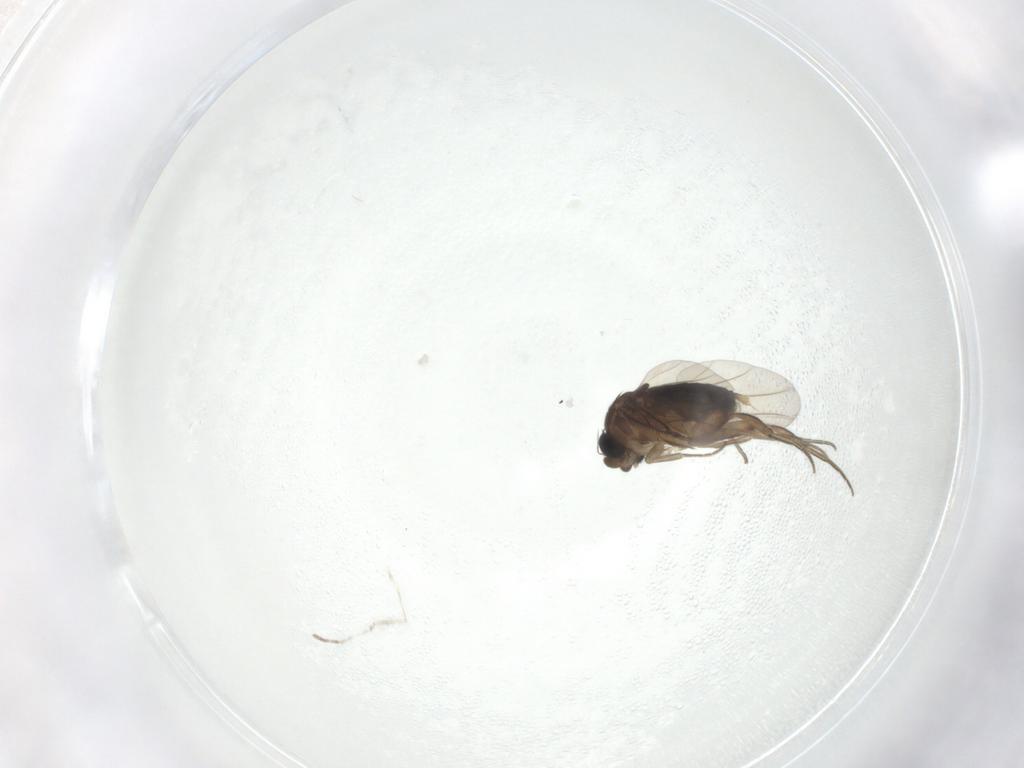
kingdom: Animalia
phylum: Arthropoda
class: Insecta
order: Diptera
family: Phoridae
